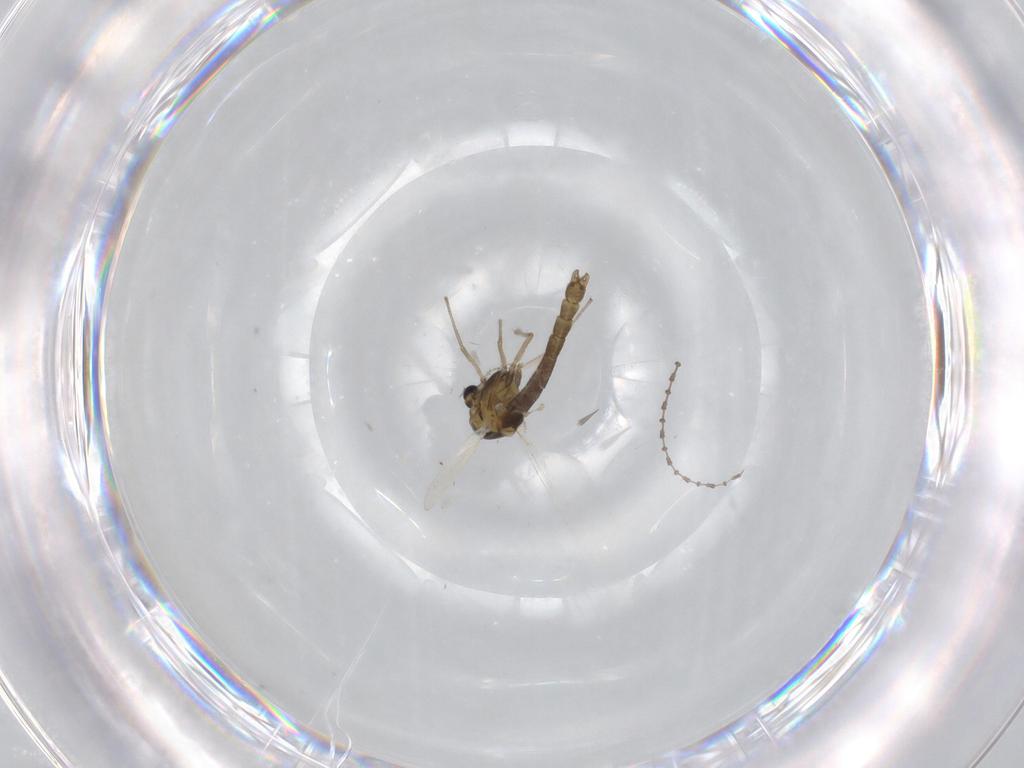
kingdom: Animalia
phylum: Arthropoda
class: Insecta
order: Diptera
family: Chironomidae
